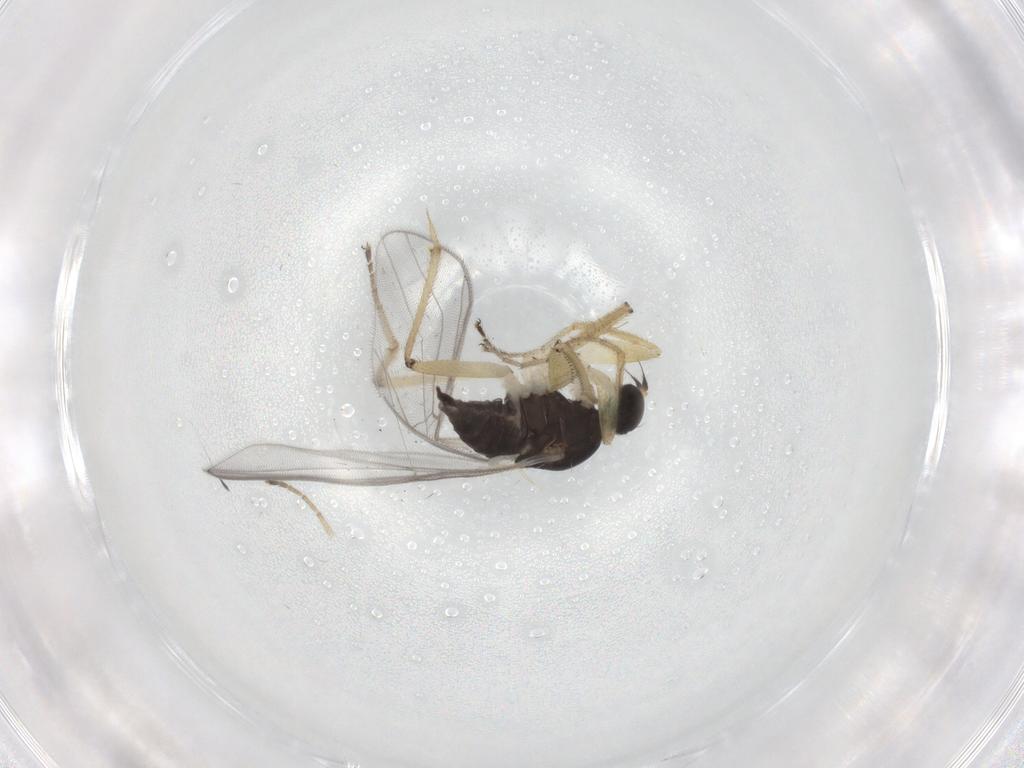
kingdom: Animalia
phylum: Arthropoda
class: Insecta
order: Diptera
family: Hybotidae
